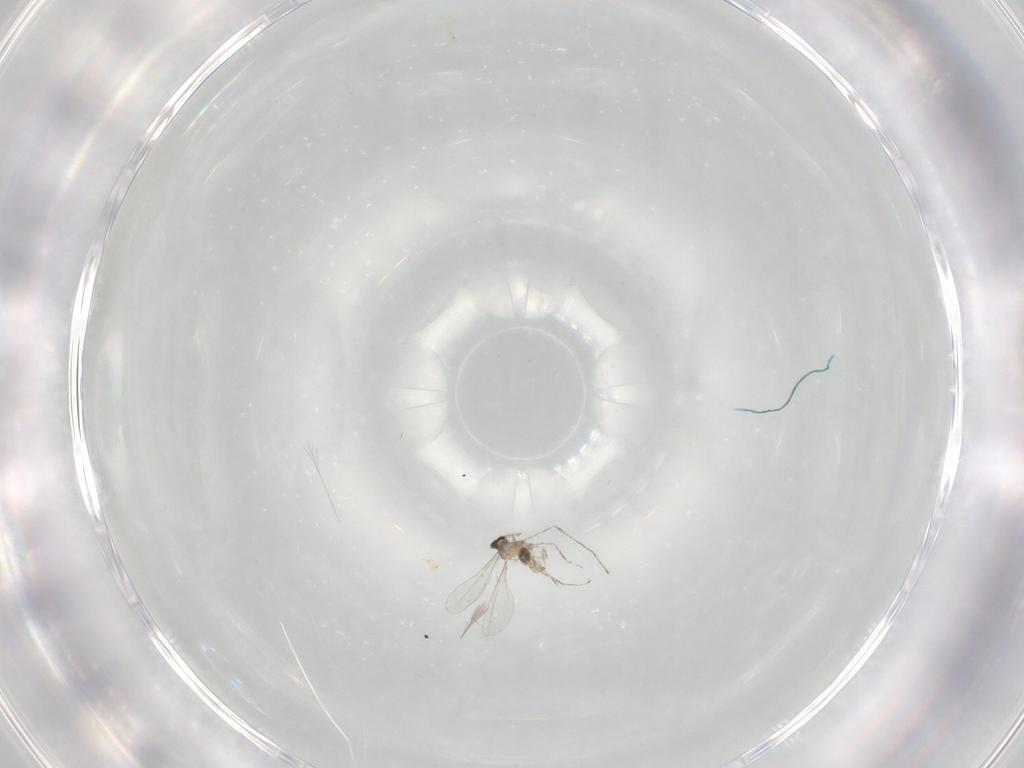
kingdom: Animalia
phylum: Arthropoda
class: Insecta
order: Diptera
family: Cecidomyiidae
